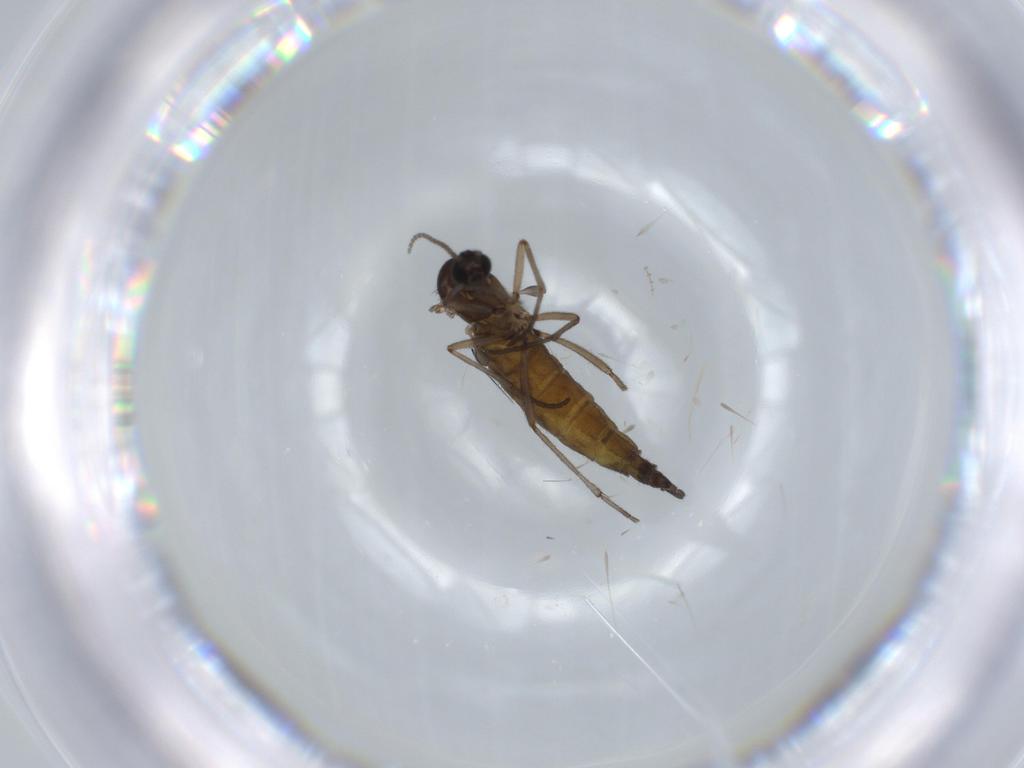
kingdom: Animalia
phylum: Arthropoda
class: Insecta
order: Diptera
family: Sciaridae
